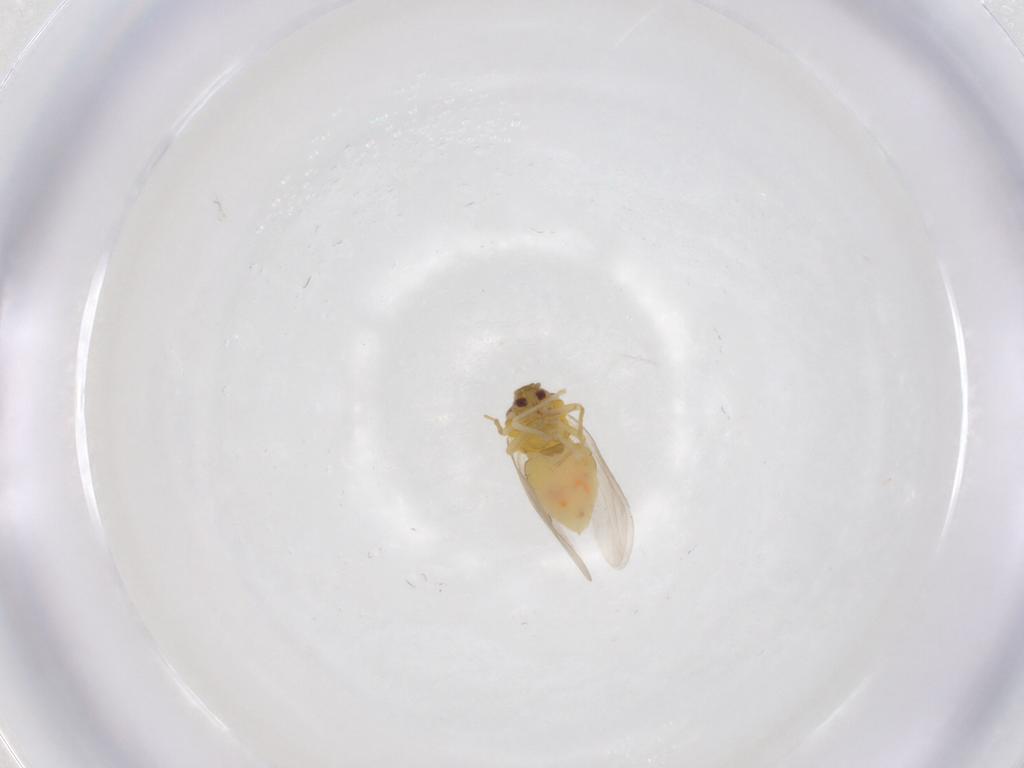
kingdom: Animalia
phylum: Arthropoda
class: Insecta
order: Hemiptera
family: Aleyrodidae
